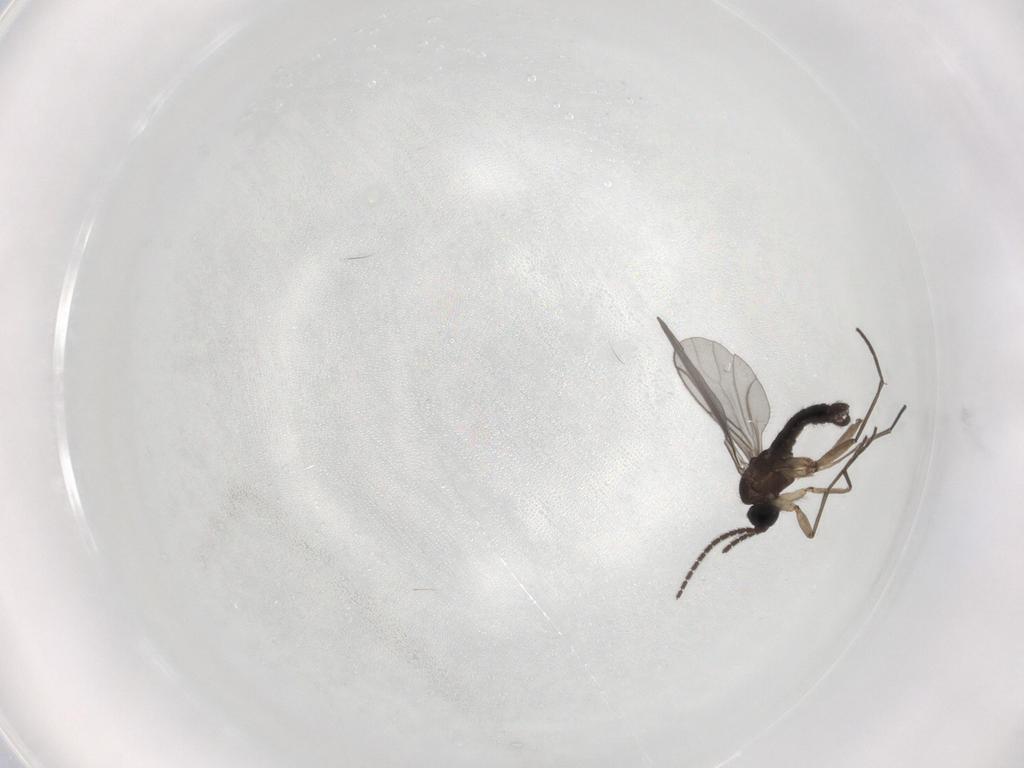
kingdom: Animalia
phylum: Arthropoda
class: Insecta
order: Diptera
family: Sciaridae
